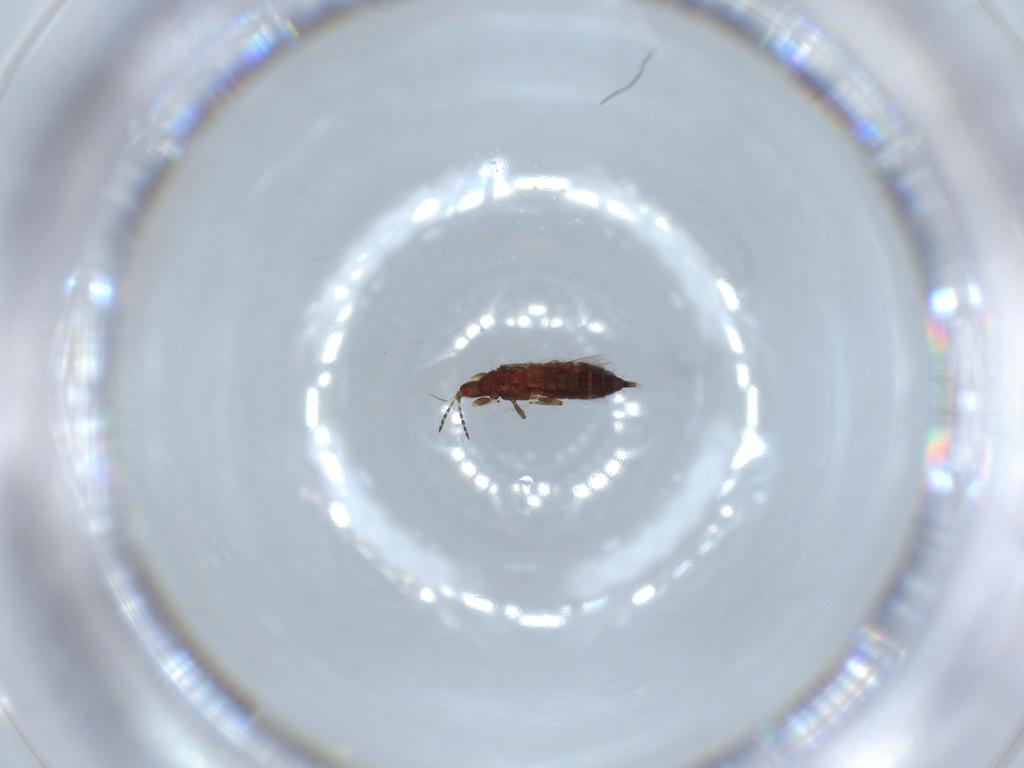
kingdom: Animalia
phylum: Arthropoda
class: Insecta
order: Thysanoptera
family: Phlaeothripidae
